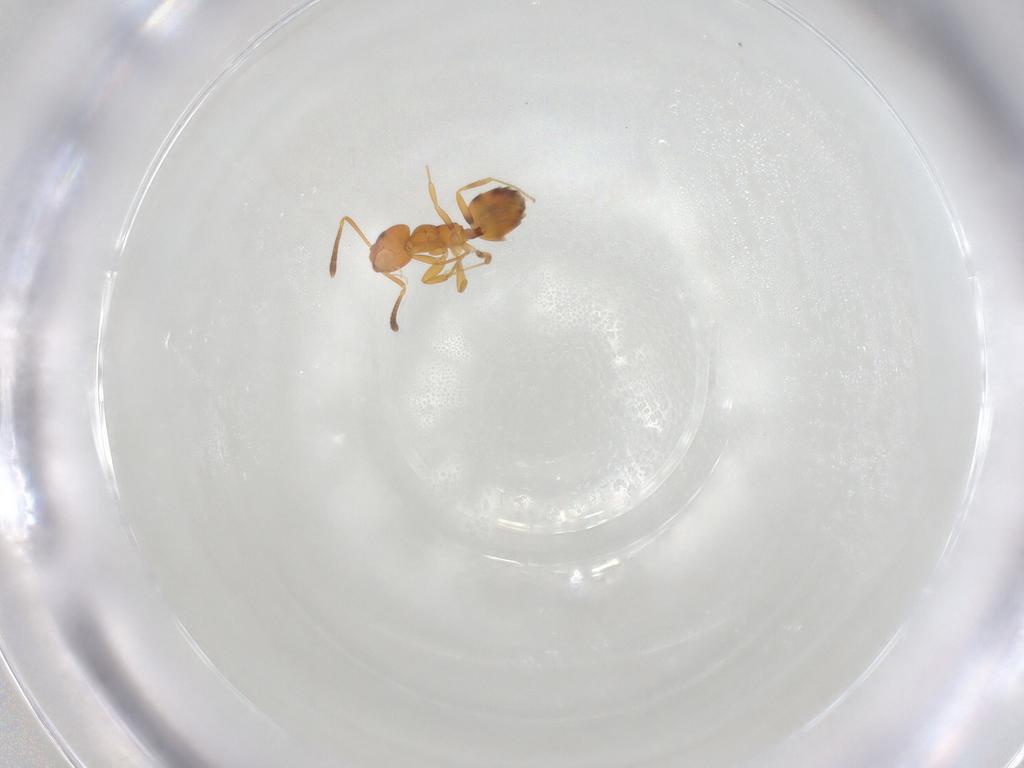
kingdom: Animalia
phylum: Arthropoda
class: Insecta
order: Hymenoptera
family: Formicidae
